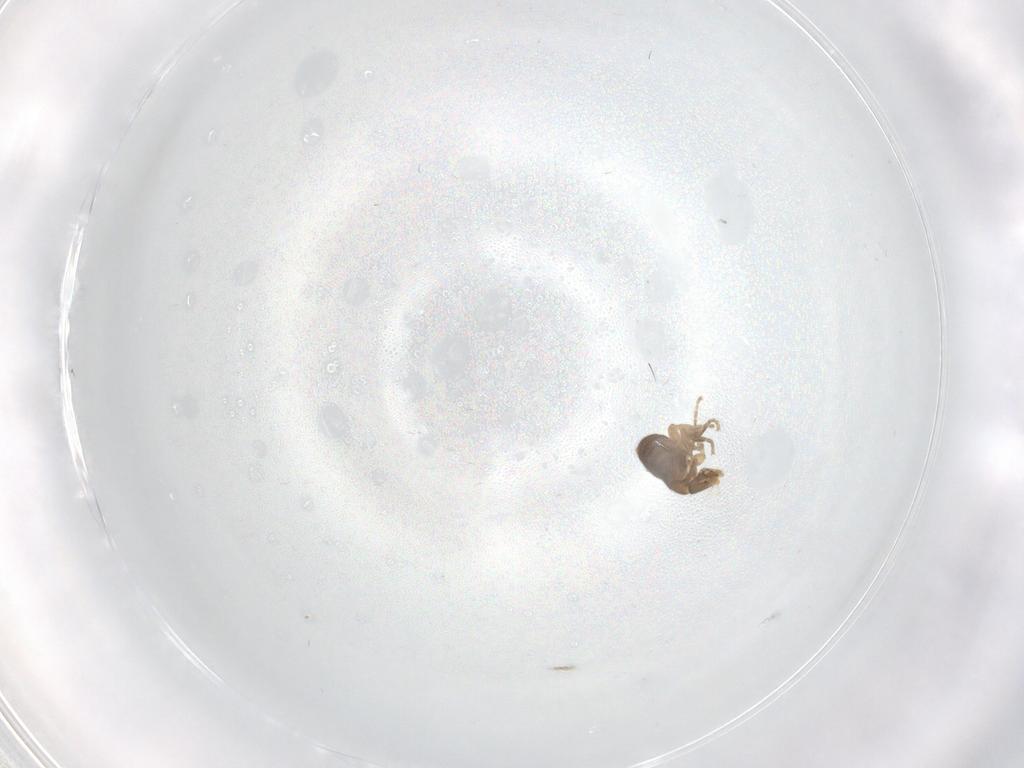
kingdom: Animalia
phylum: Arthropoda
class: Insecta
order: Diptera
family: Phoridae
